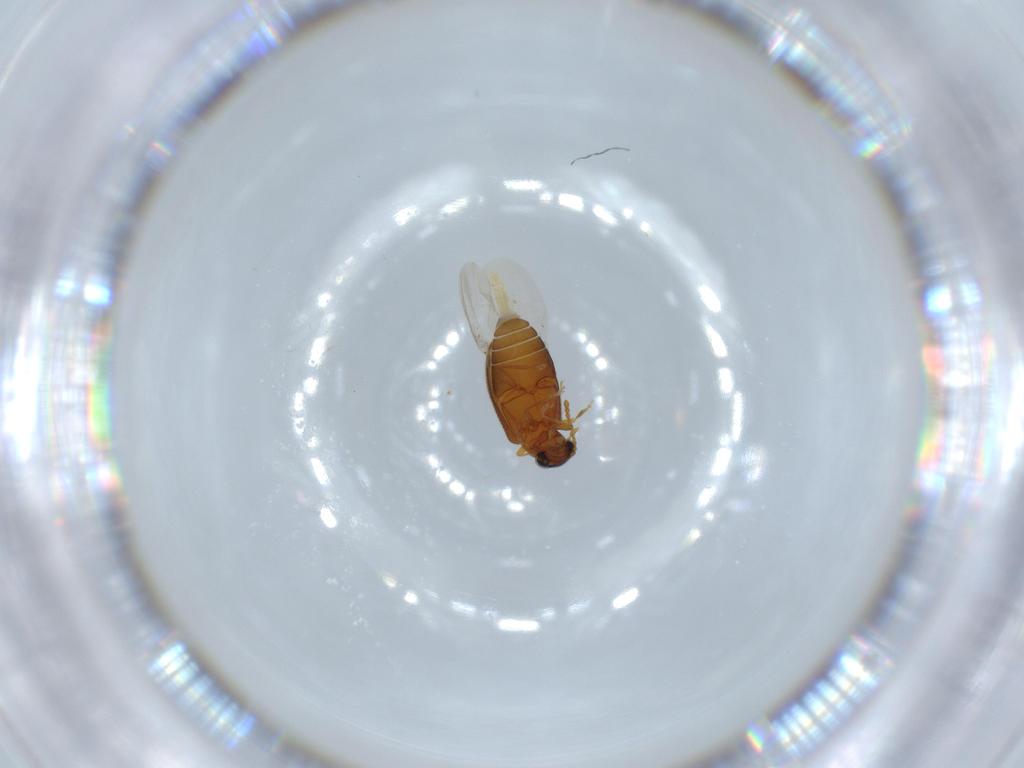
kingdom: Animalia
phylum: Arthropoda
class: Insecta
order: Coleoptera
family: Aderidae
